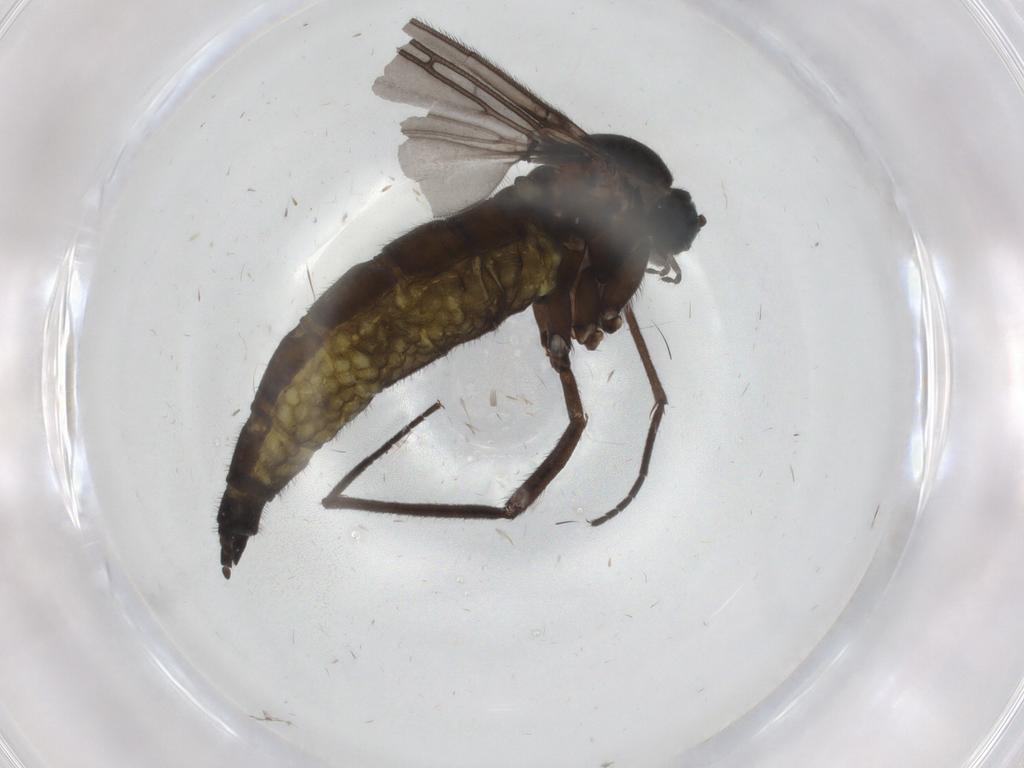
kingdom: Animalia
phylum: Arthropoda
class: Insecta
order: Diptera
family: Sciaridae
